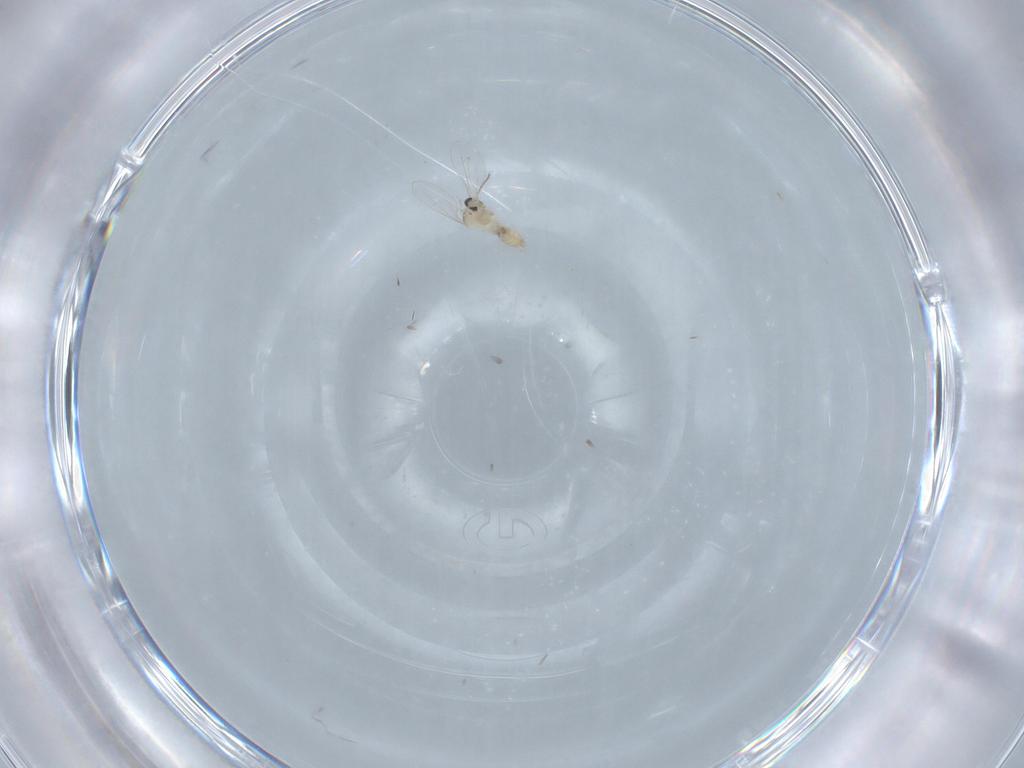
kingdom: Animalia
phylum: Arthropoda
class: Insecta
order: Diptera
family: Cecidomyiidae
